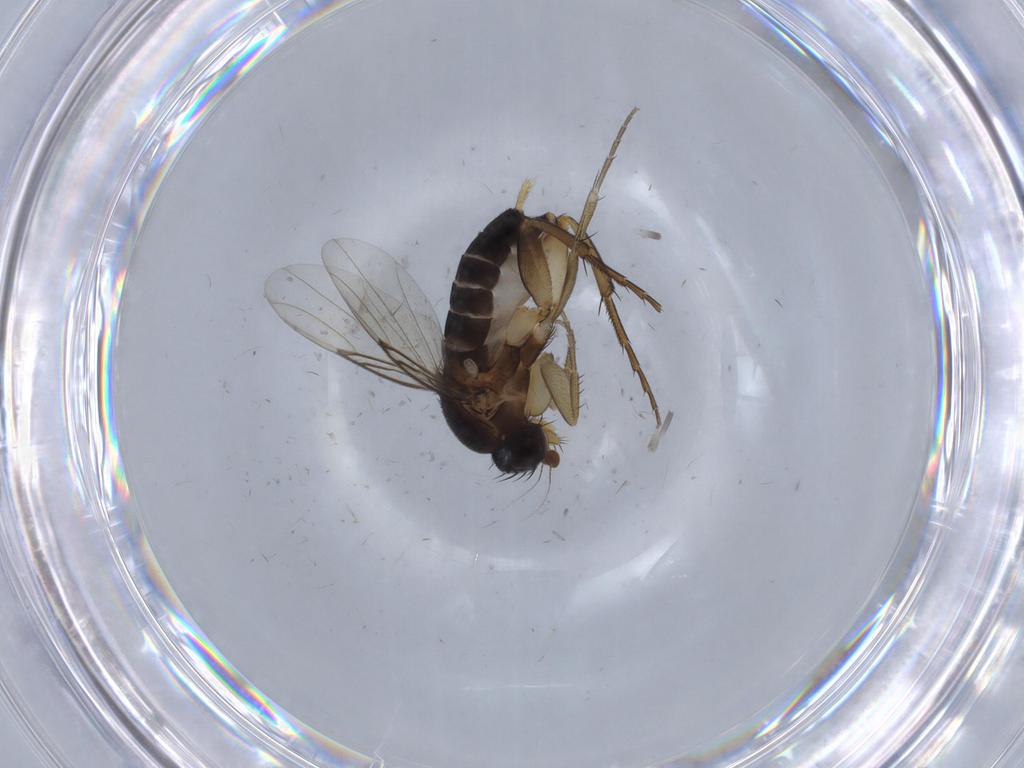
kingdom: Animalia
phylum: Arthropoda
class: Insecta
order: Diptera
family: Phoridae
